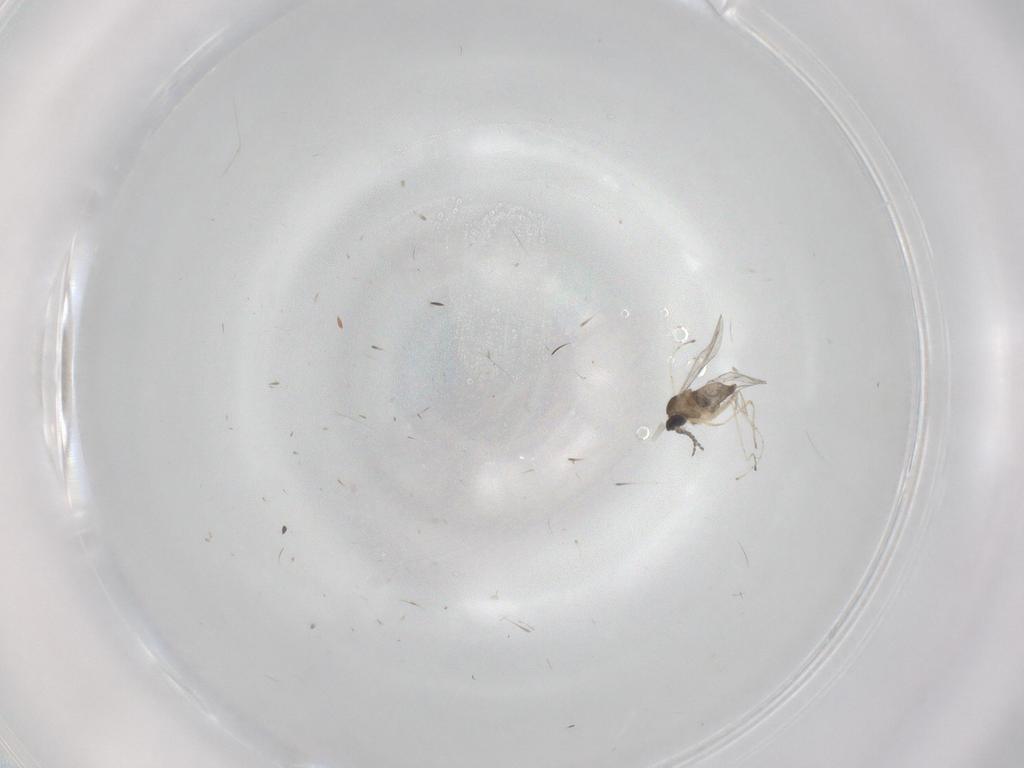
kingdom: Animalia
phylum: Arthropoda
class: Insecta
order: Diptera
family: Chironomidae
